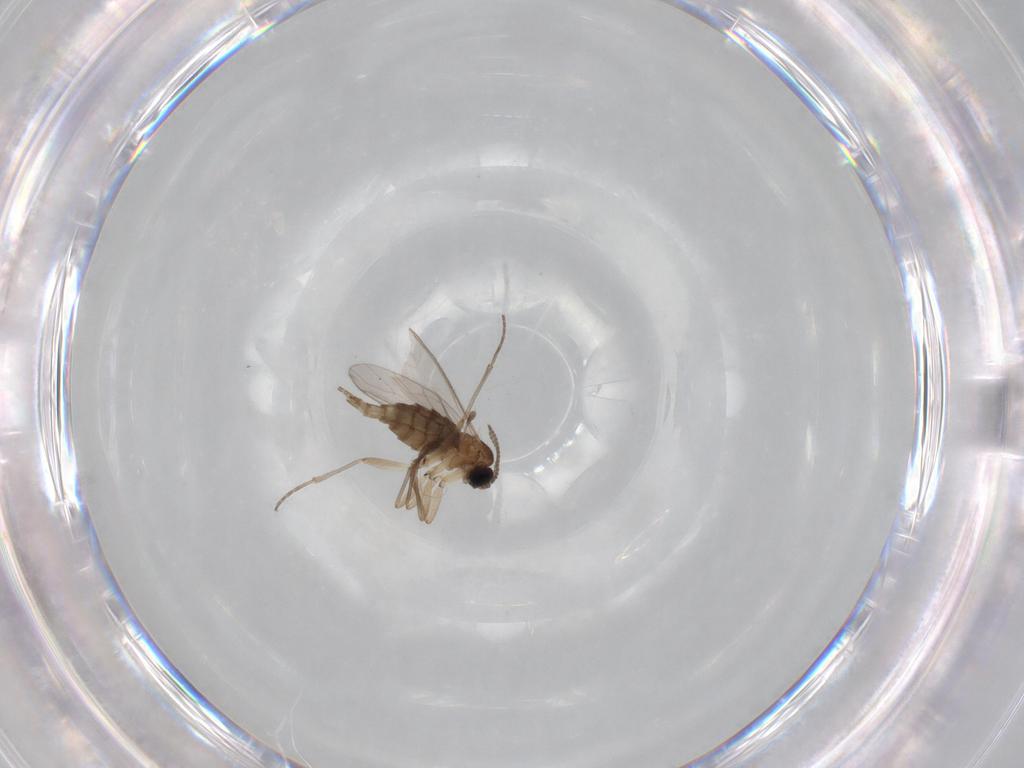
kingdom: Animalia
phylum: Arthropoda
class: Insecta
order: Diptera
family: Sciaridae
